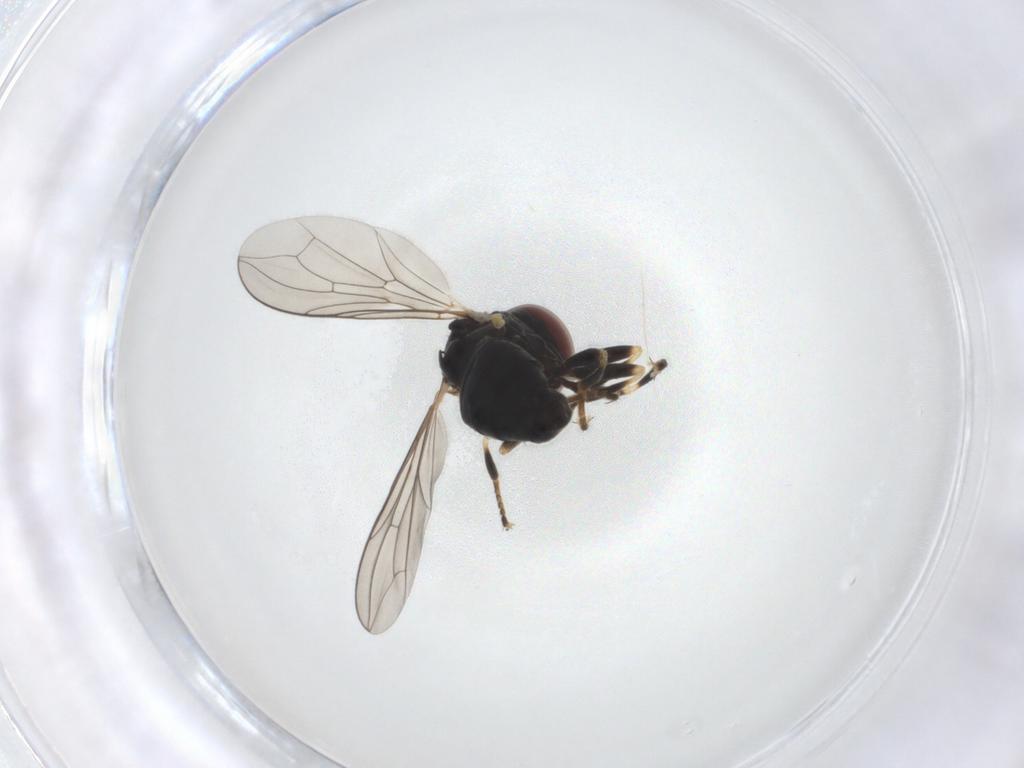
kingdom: Animalia
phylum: Arthropoda
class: Insecta
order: Diptera
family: Pipunculidae
